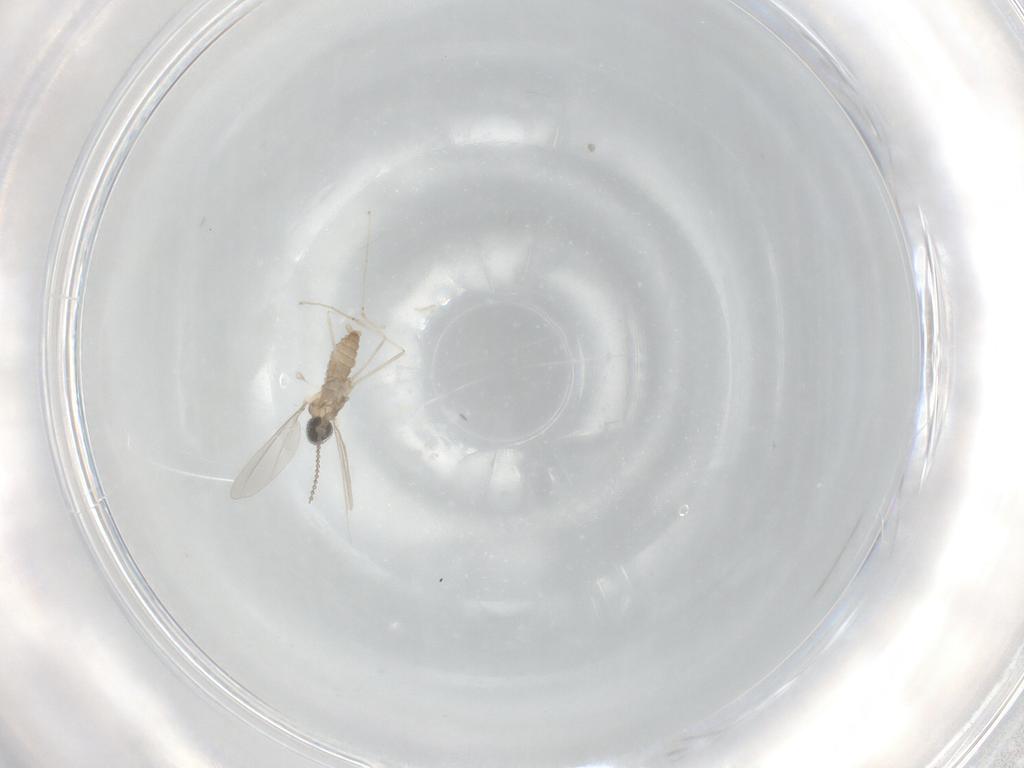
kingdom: Animalia
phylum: Arthropoda
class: Insecta
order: Diptera
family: Cecidomyiidae
